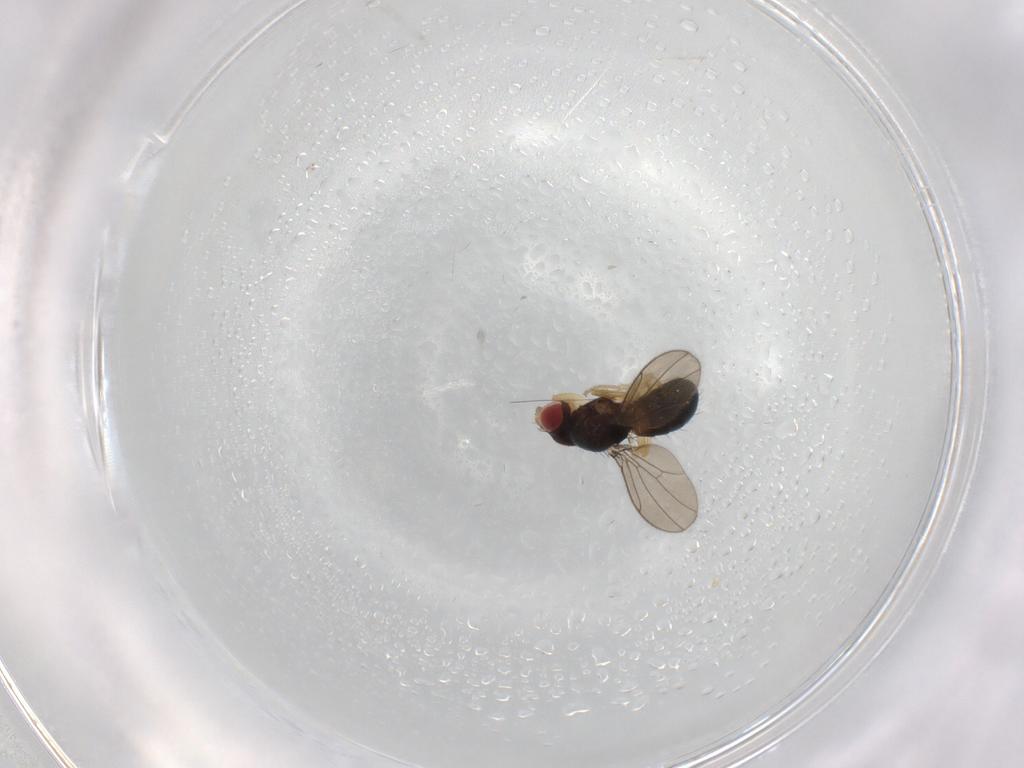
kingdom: Animalia
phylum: Arthropoda
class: Insecta
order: Diptera
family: Drosophilidae
